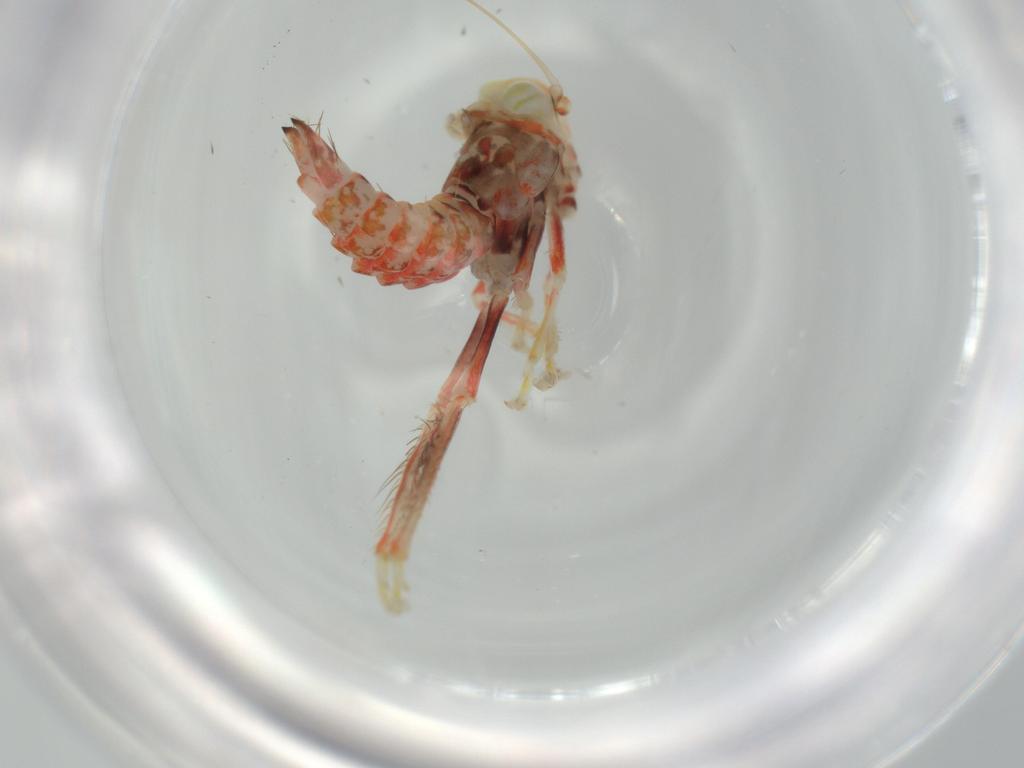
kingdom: Animalia
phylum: Arthropoda
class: Insecta
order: Hemiptera
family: Cicadellidae
